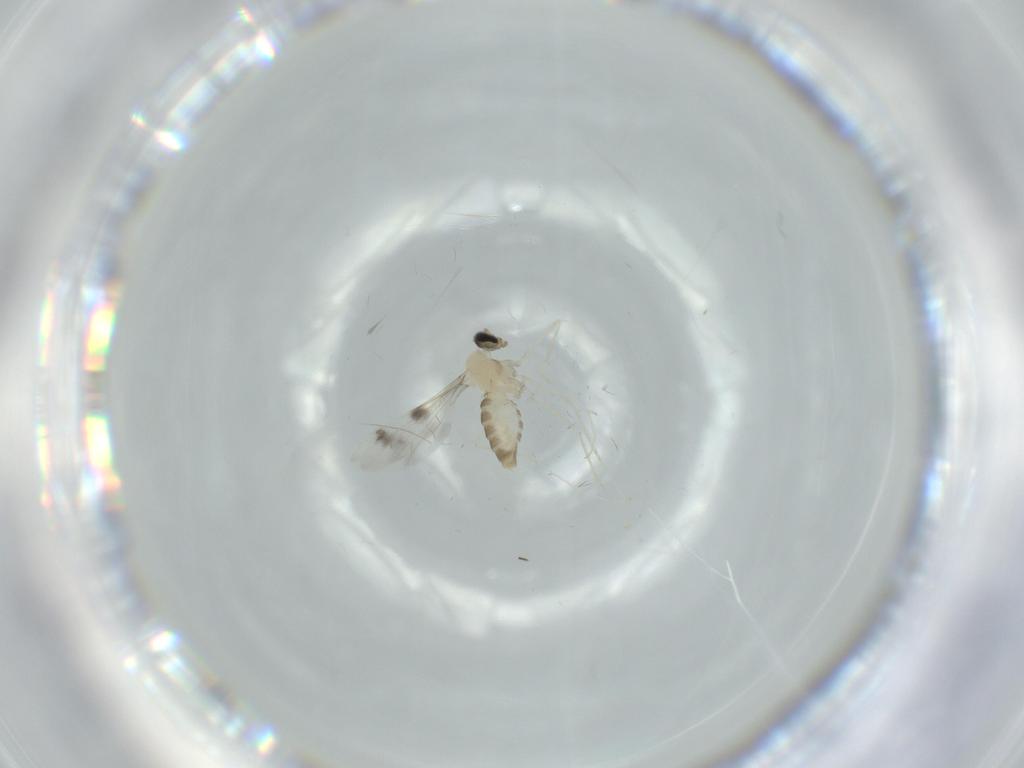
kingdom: Animalia
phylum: Arthropoda
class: Insecta
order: Diptera
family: Cecidomyiidae
